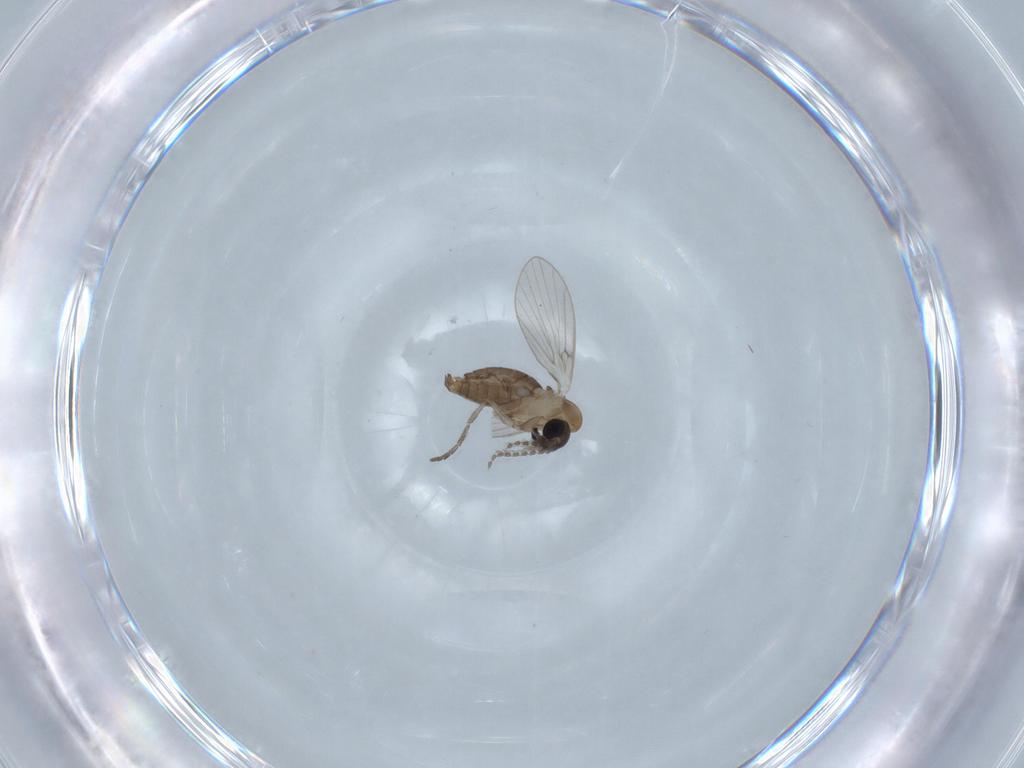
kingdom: Animalia
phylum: Arthropoda
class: Insecta
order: Diptera
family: Psychodidae
